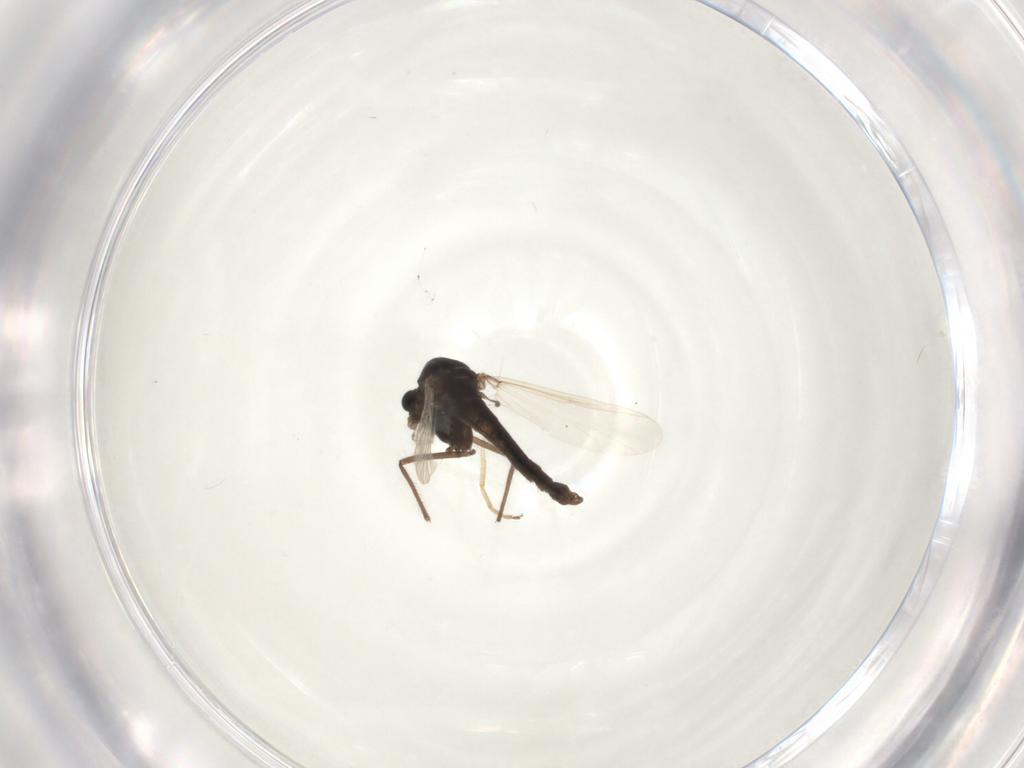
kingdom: Animalia
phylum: Arthropoda
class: Insecta
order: Diptera
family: Chironomidae
